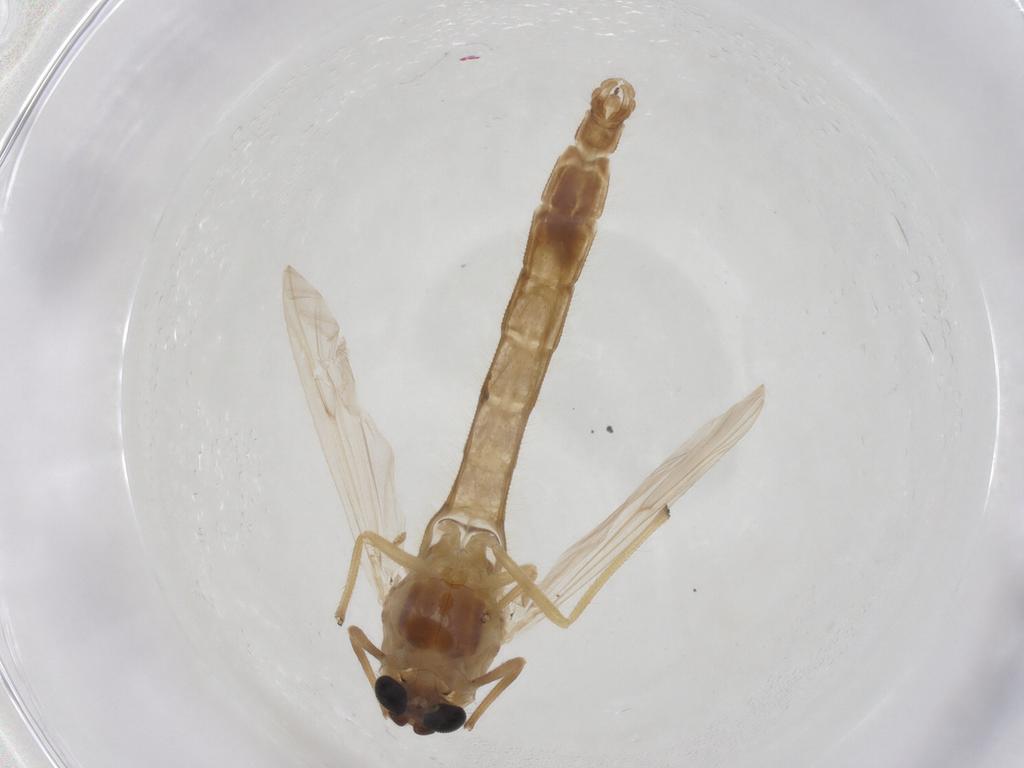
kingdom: Animalia
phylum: Arthropoda
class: Insecta
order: Diptera
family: Chironomidae
